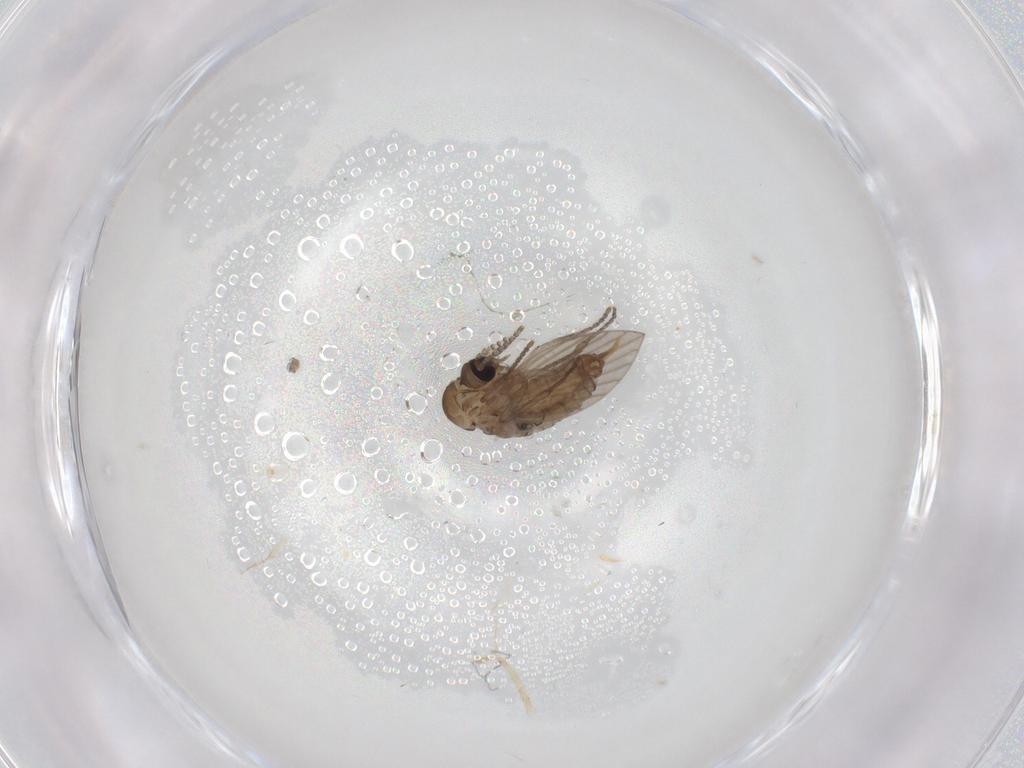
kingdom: Animalia
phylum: Arthropoda
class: Insecta
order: Diptera
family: Psychodidae
